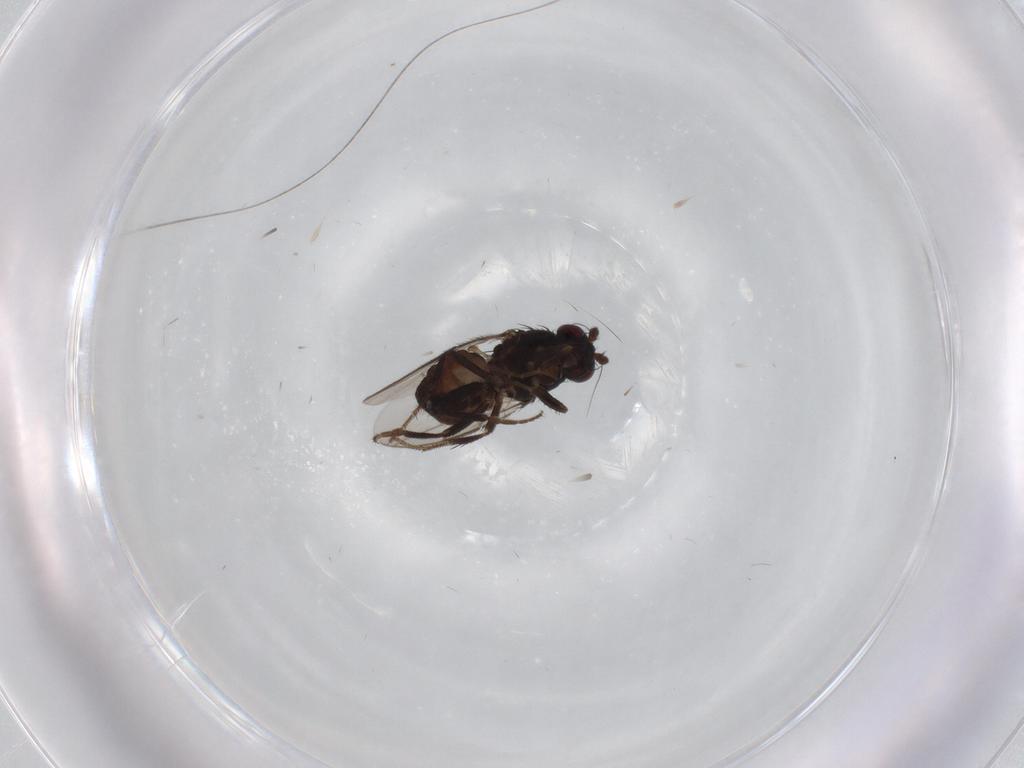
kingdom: Animalia
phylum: Arthropoda
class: Insecta
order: Diptera
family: Sphaeroceridae
